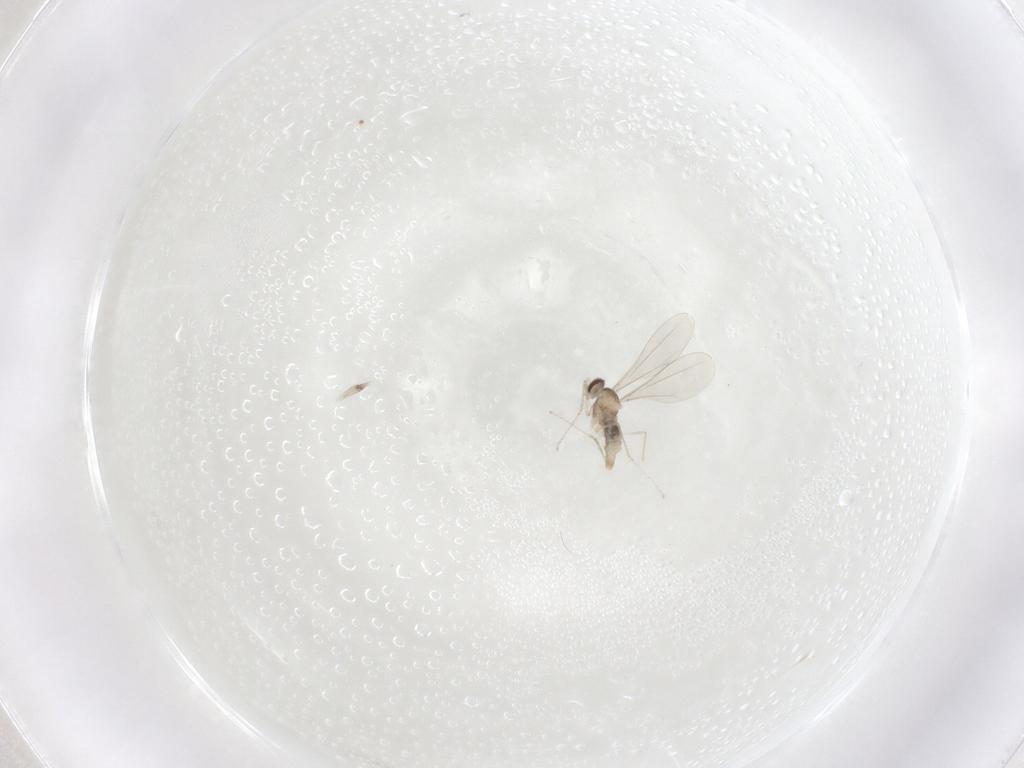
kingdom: Animalia
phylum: Arthropoda
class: Insecta
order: Diptera
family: Cecidomyiidae
